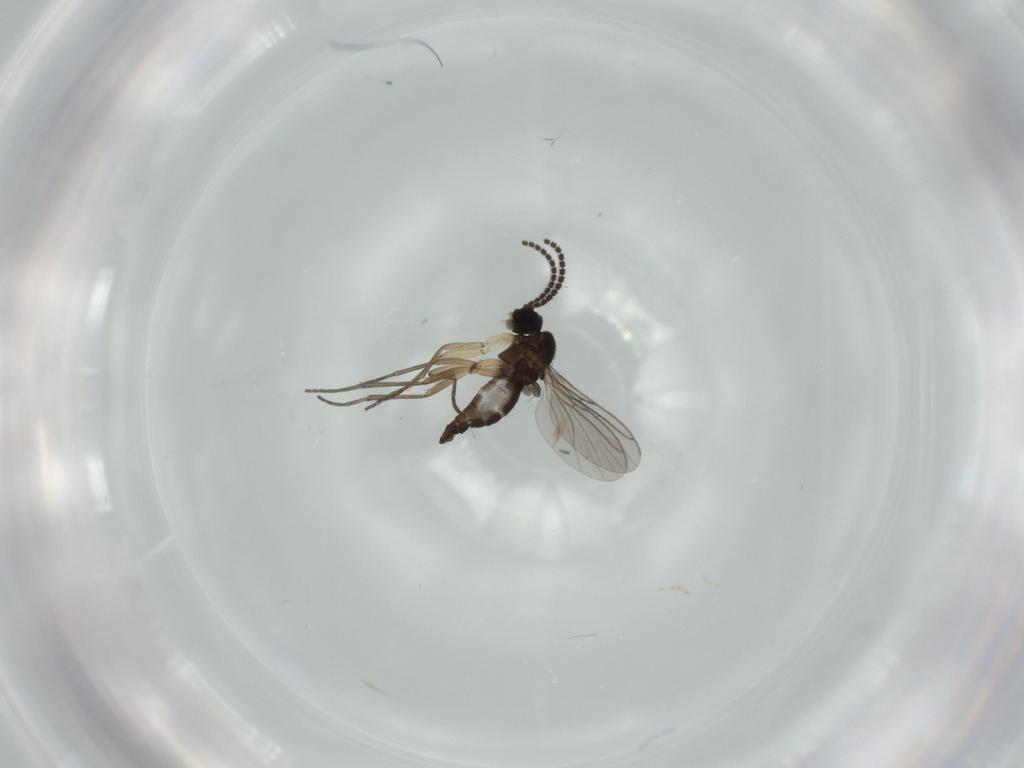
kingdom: Animalia
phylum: Arthropoda
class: Insecta
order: Diptera
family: Sciaridae
